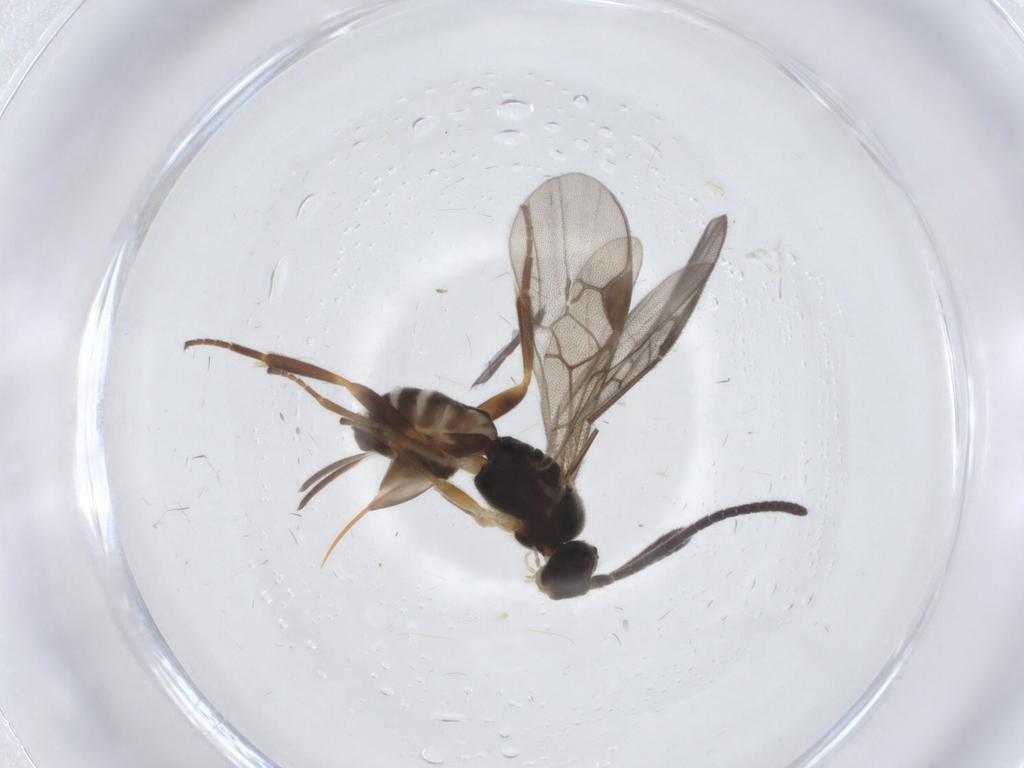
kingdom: Animalia
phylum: Arthropoda
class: Insecta
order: Hymenoptera
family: Braconidae
